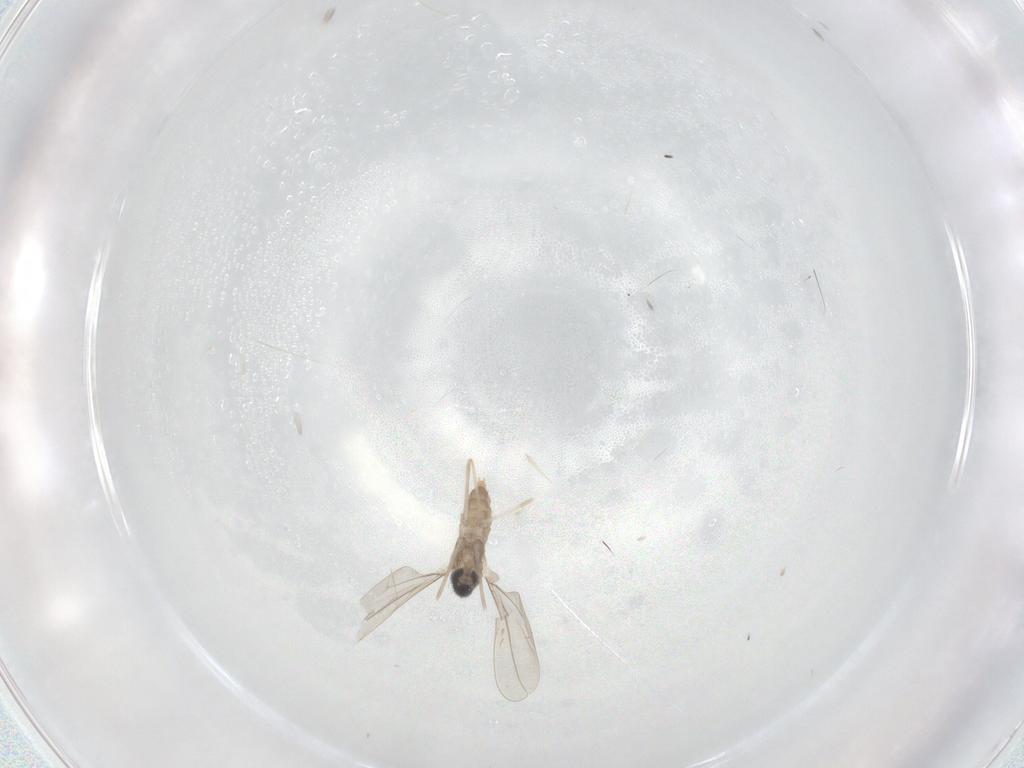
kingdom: Animalia
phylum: Arthropoda
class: Insecta
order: Diptera
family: Cecidomyiidae
